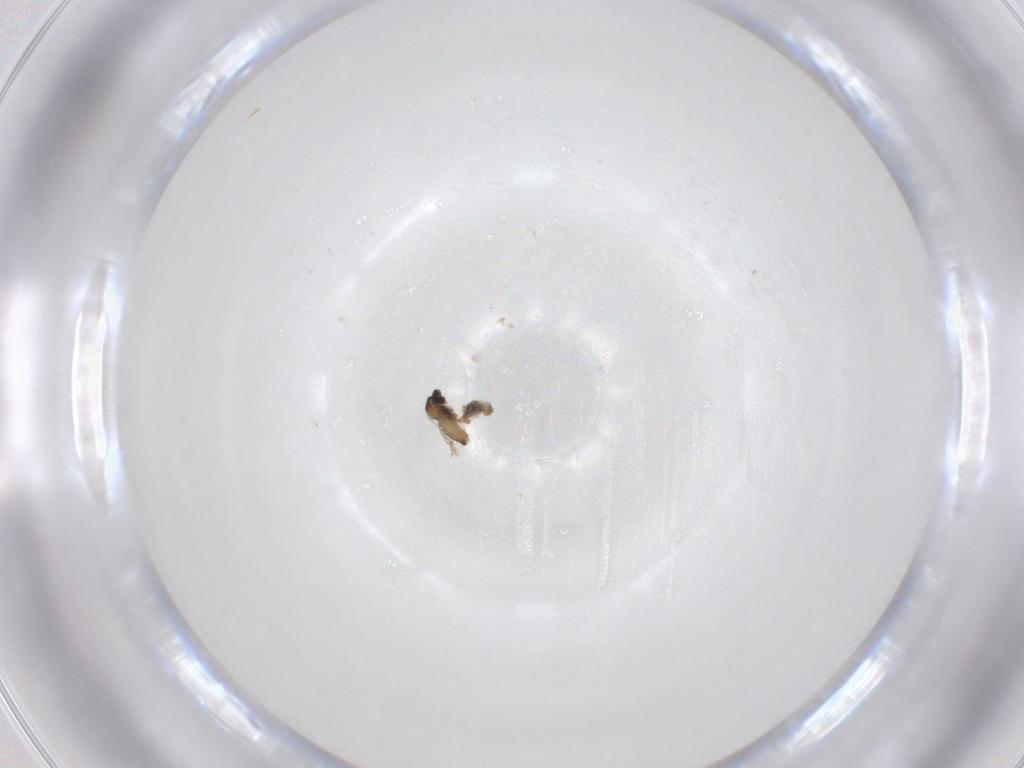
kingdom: Animalia
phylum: Arthropoda
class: Insecta
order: Diptera
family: Cecidomyiidae
